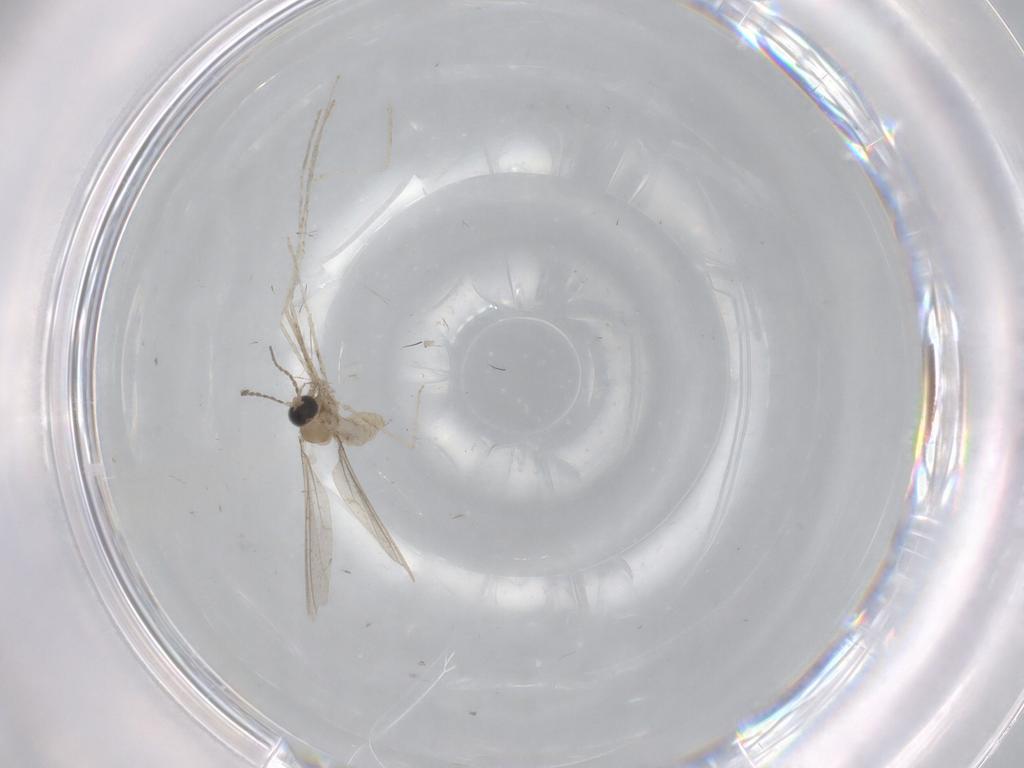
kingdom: Animalia
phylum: Arthropoda
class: Insecta
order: Diptera
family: Cecidomyiidae
